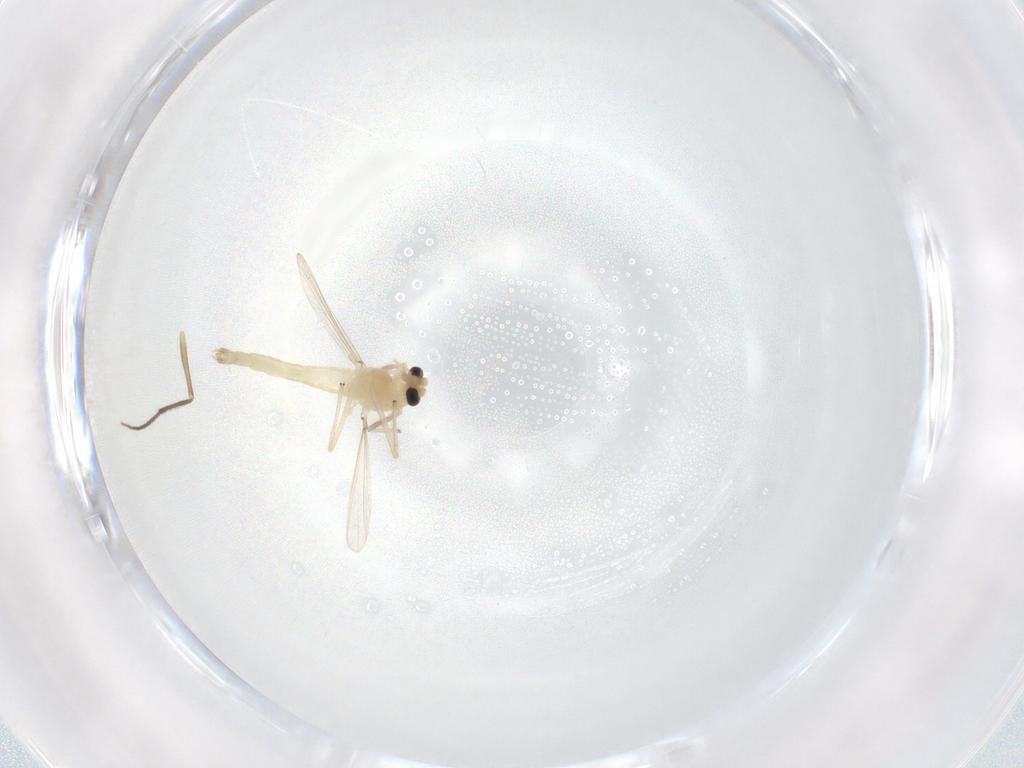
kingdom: Animalia
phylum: Arthropoda
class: Insecta
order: Diptera
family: Chironomidae
